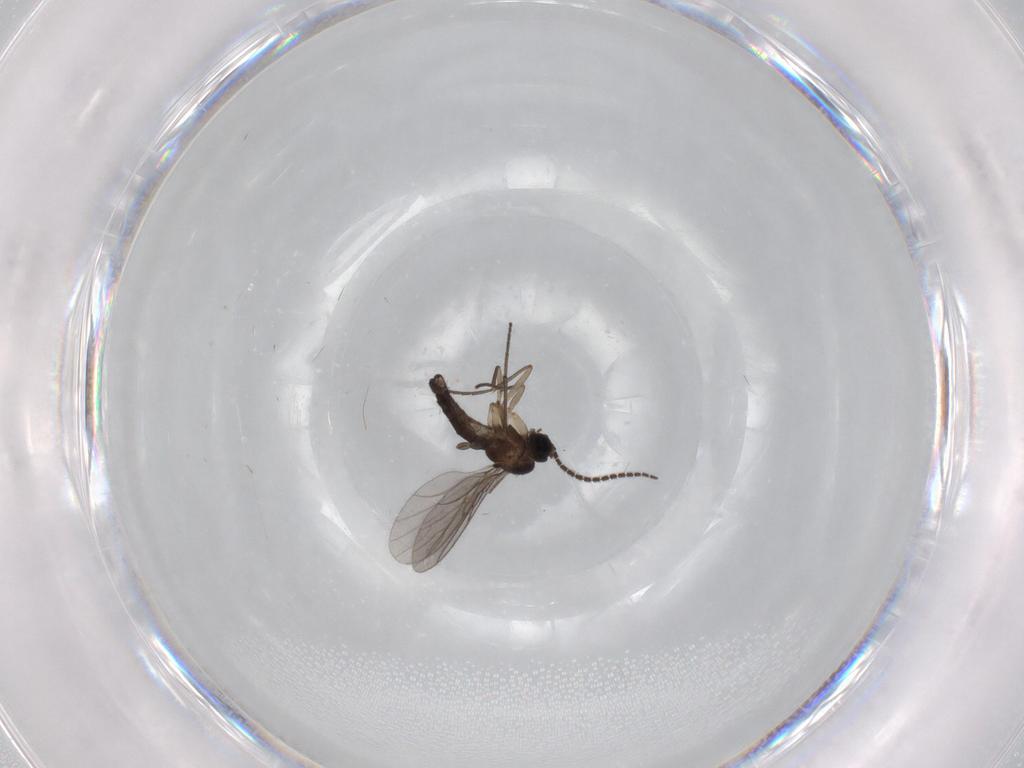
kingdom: Animalia
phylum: Arthropoda
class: Insecta
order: Diptera
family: Sciaridae
